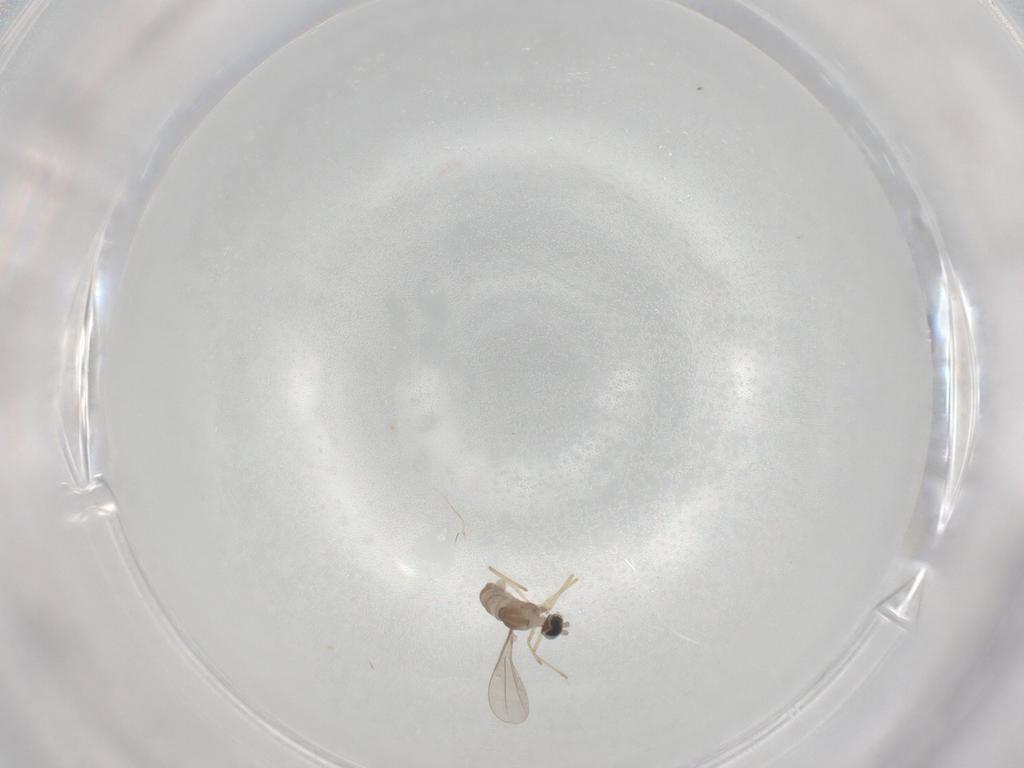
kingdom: Animalia
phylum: Arthropoda
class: Insecta
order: Diptera
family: Cecidomyiidae
